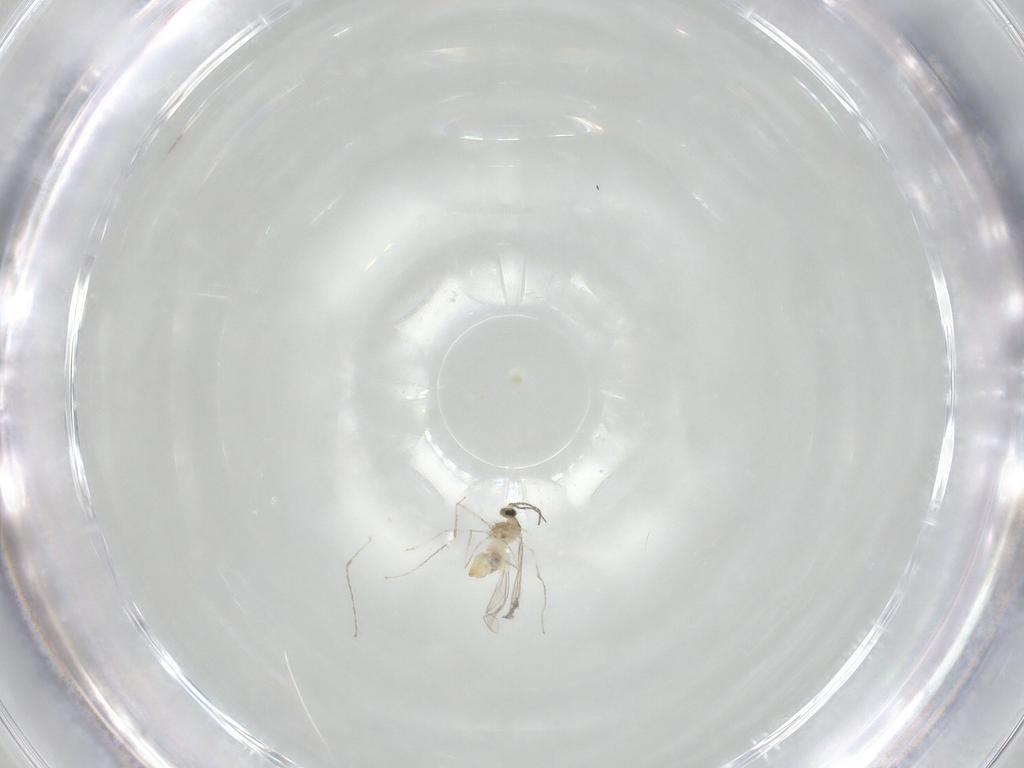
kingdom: Animalia
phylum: Arthropoda
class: Insecta
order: Diptera
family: Cecidomyiidae
